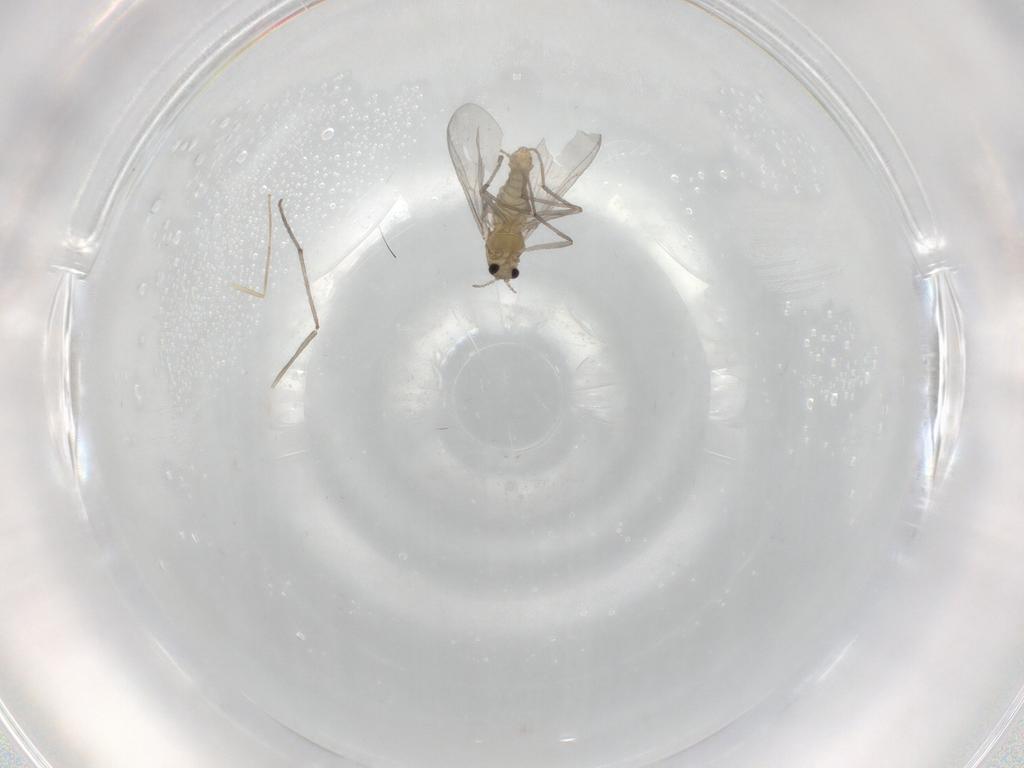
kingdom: Animalia
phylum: Arthropoda
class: Insecta
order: Diptera
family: Chironomidae
